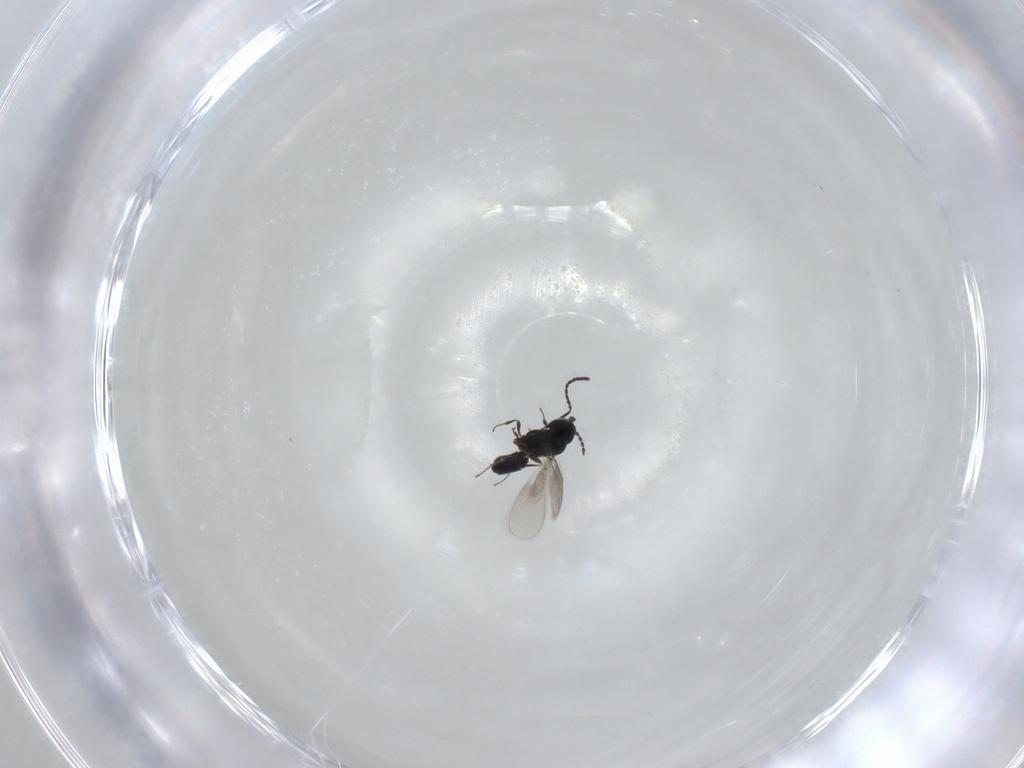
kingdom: Animalia
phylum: Arthropoda
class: Insecta
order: Hymenoptera
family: Scelionidae
